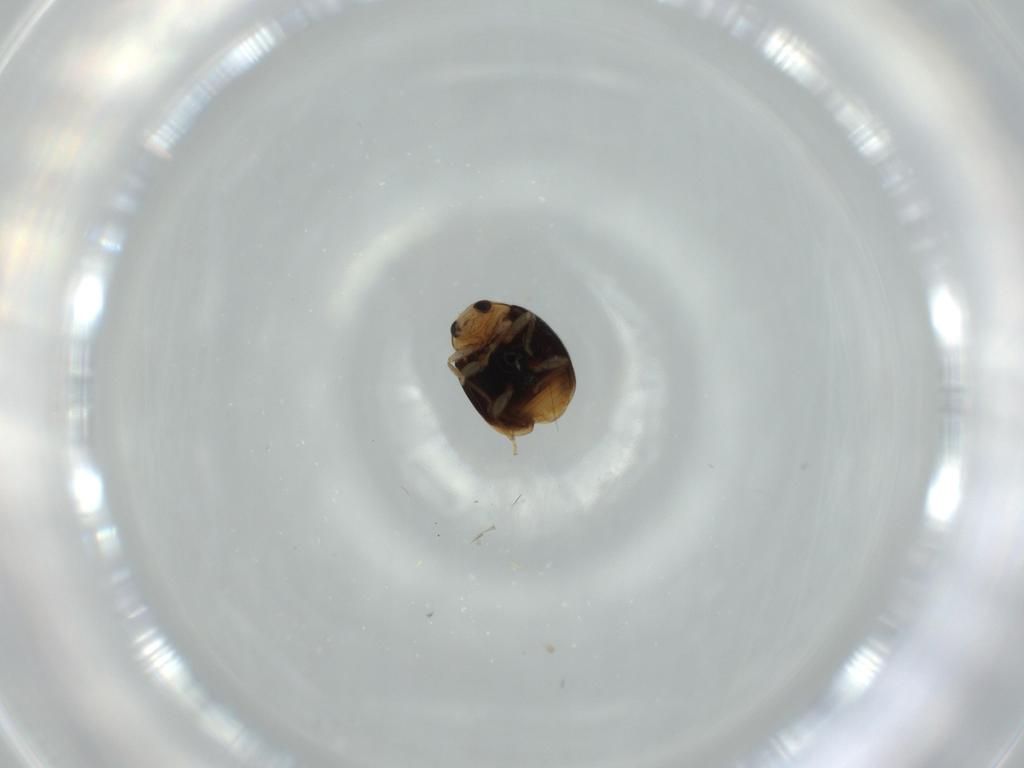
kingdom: Animalia
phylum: Arthropoda
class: Insecta
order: Coleoptera
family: Coccinellidae
